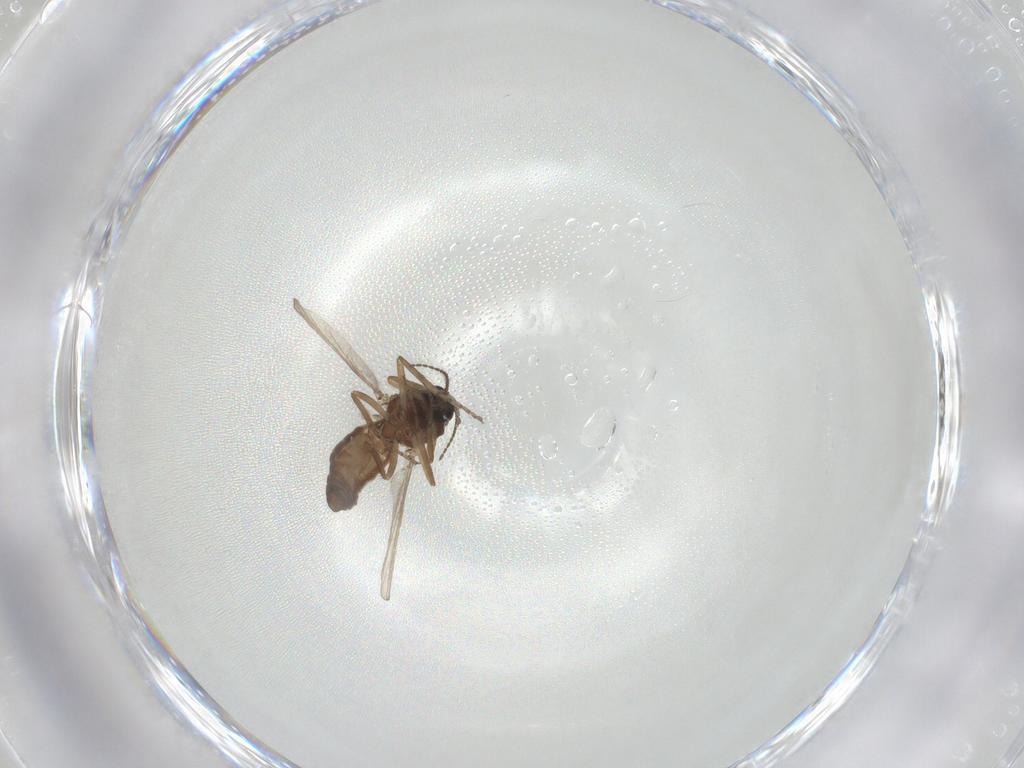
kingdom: Animalia
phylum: Arthropoda
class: Insecta
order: Diptera
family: Ceratopogonidae
